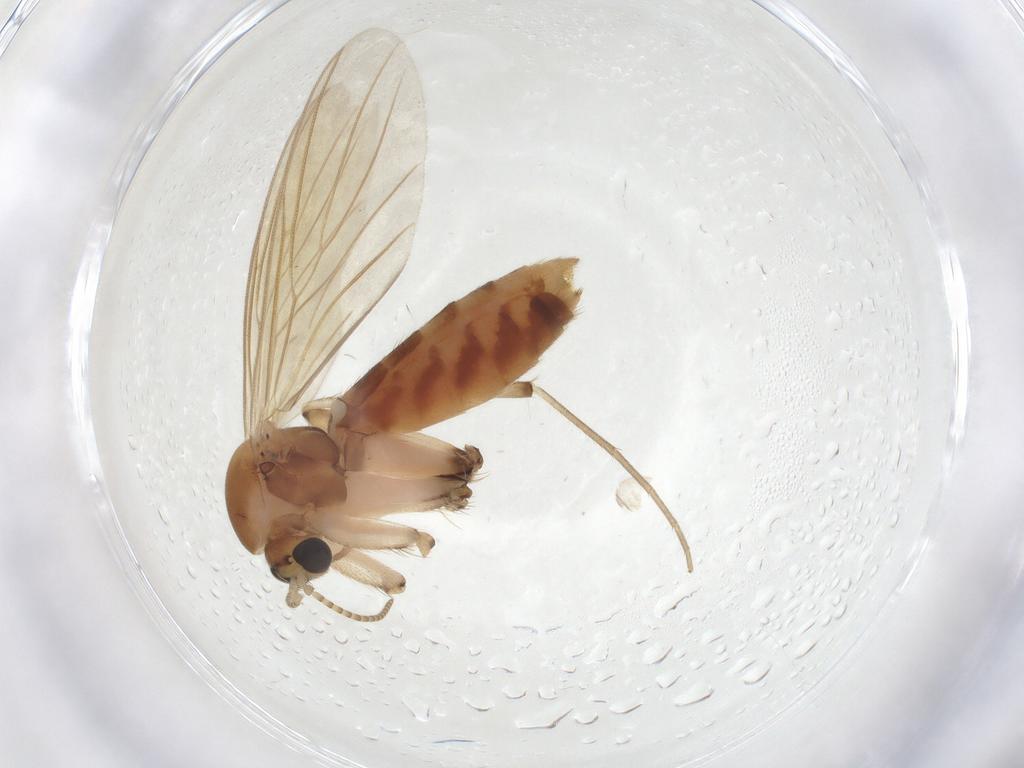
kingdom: Animalia
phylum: Arthropoda
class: Insecta
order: Diptera
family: Mycetophilidae
